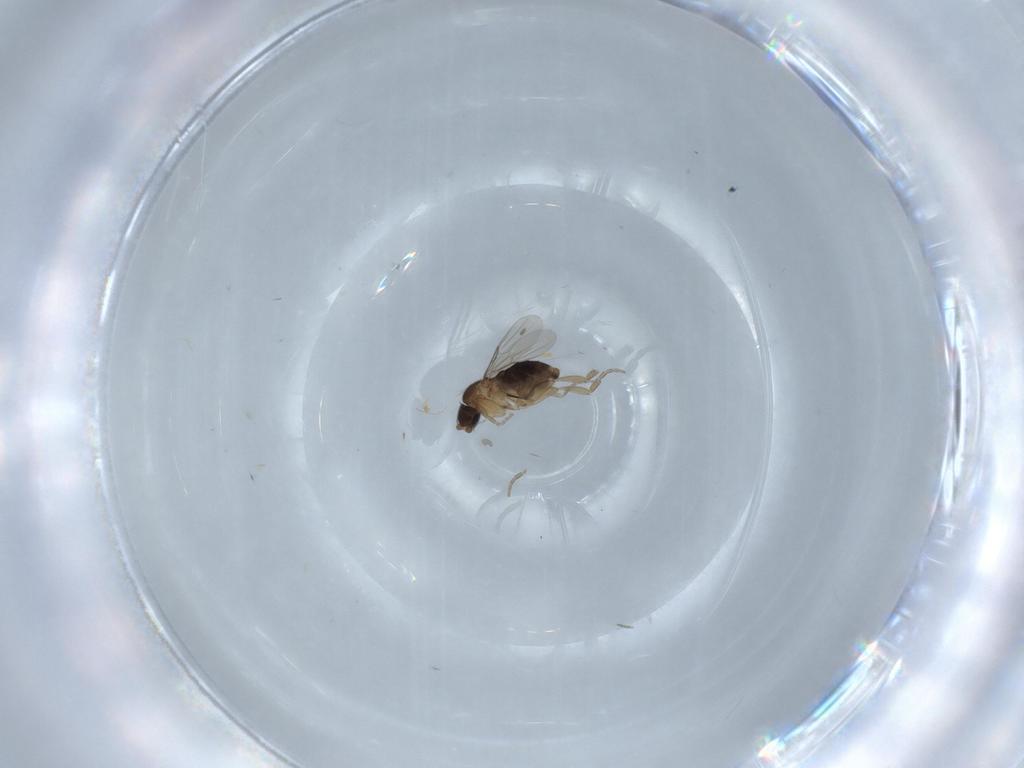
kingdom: Animalia
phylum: Arthropoda
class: Insecta
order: Diptera
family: Phoridae
